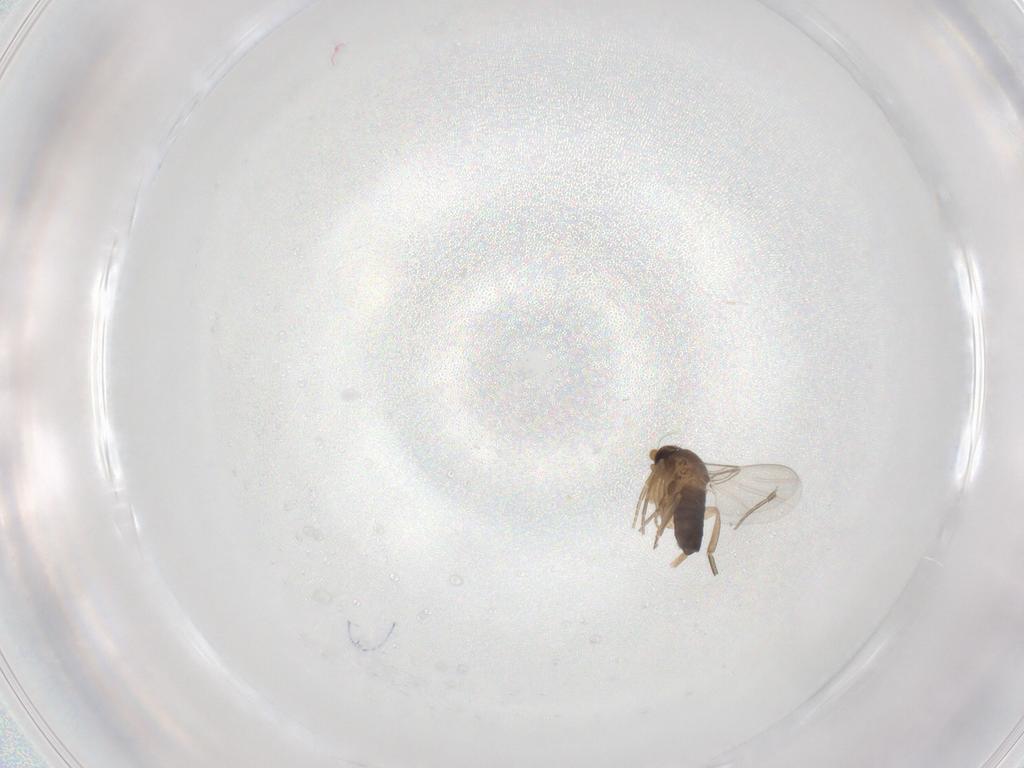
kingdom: Animalia
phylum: Arthropoda
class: Insecta
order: Diptera
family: Phoridae
